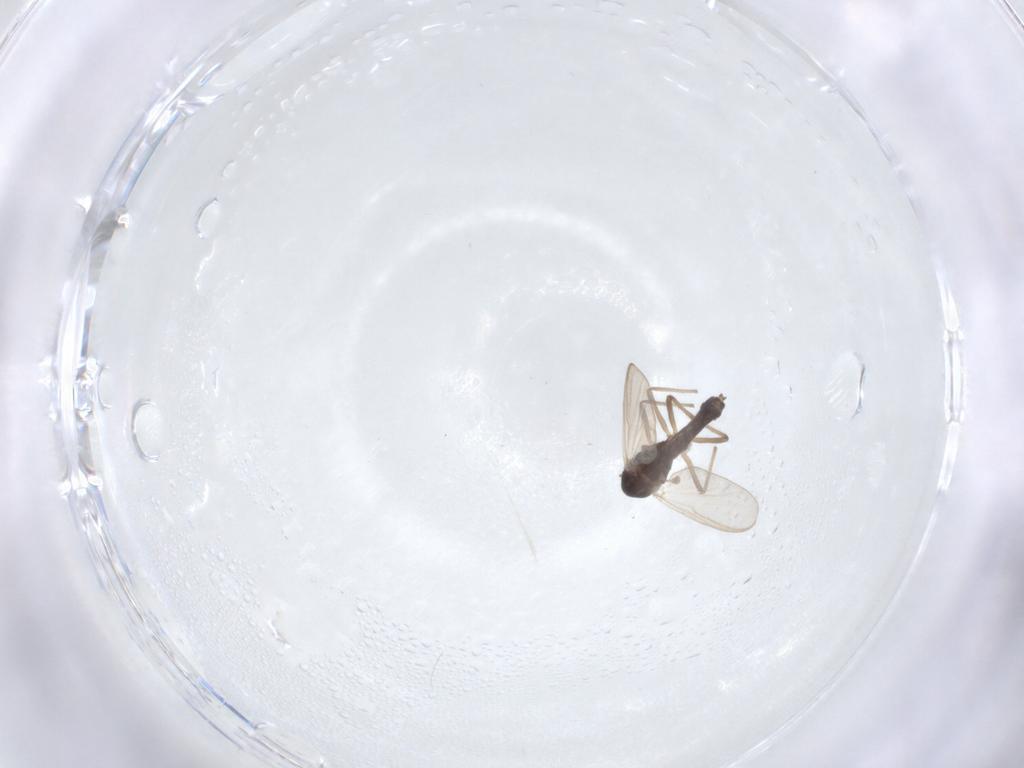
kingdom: Animalia
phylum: Arthropoda
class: Insecta
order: Diptera
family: Chironomidae
